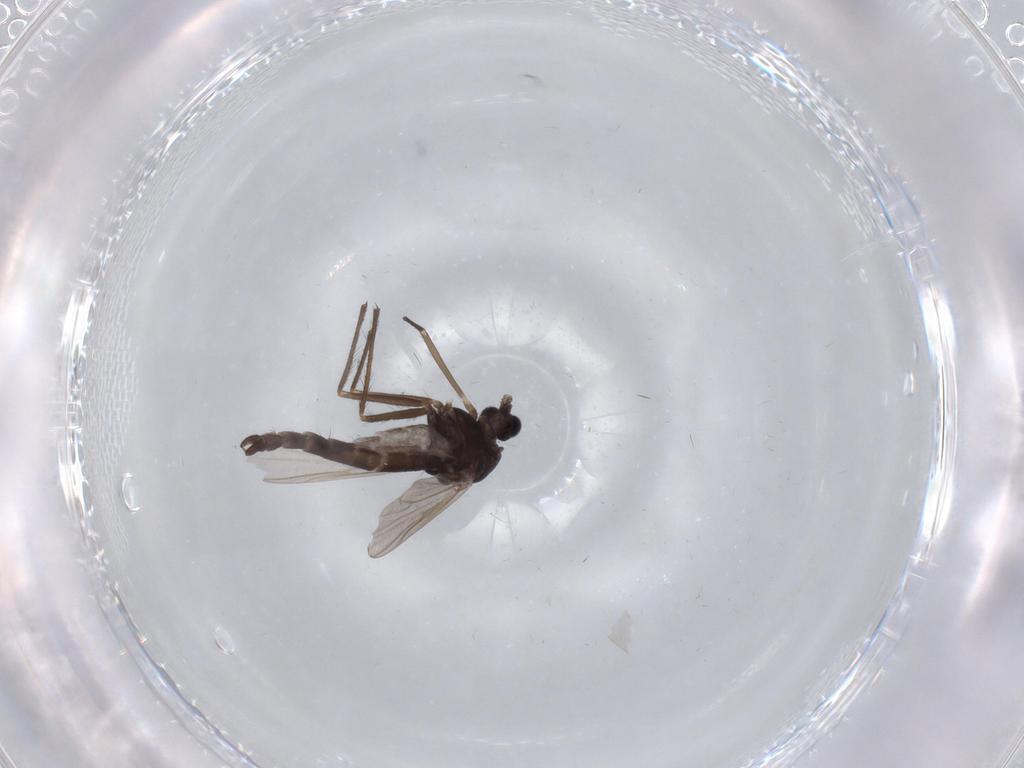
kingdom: Animalia
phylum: Arthropoda
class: Insecta
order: Diptera
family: Chironomidae
